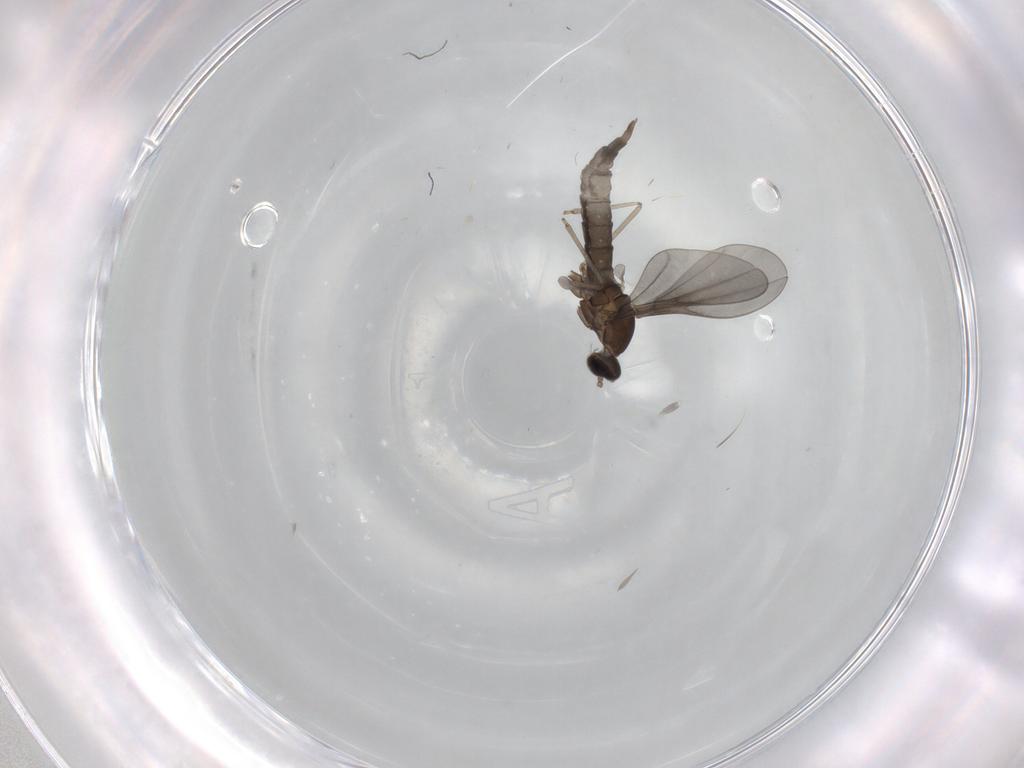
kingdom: Animalia
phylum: Arthropoda
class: Insecta
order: Diptera
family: Cecidomyiidae
